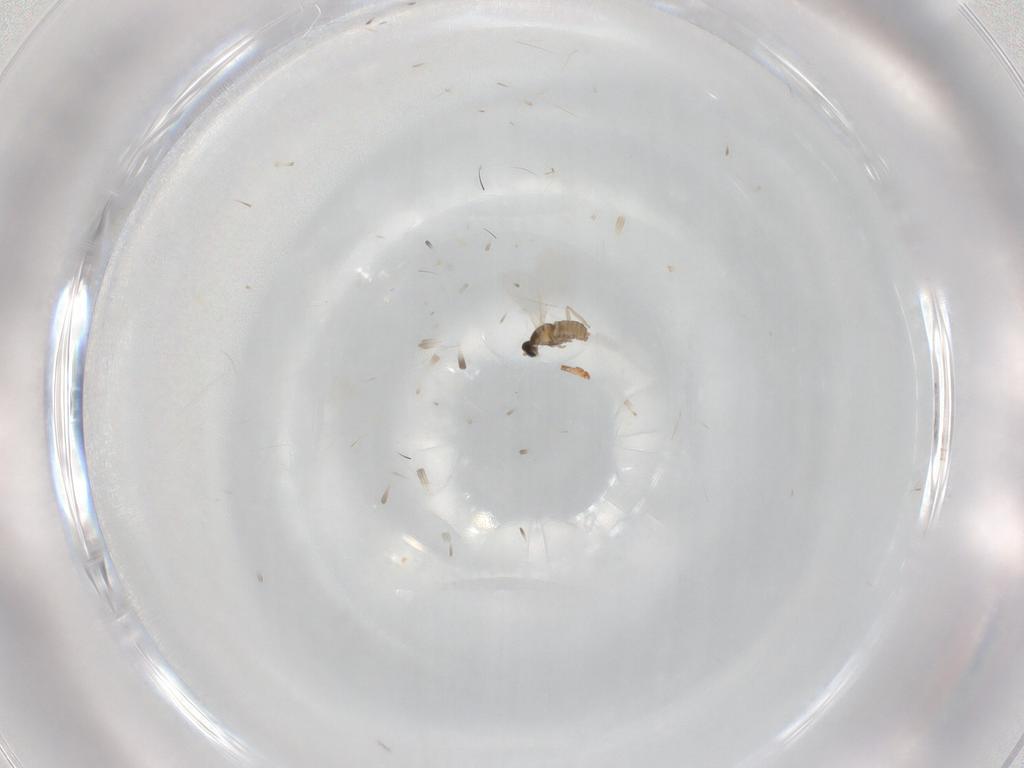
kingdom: Animalia
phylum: Arthropoda
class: Insecta
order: Diptera
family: Cecidomyiidae
